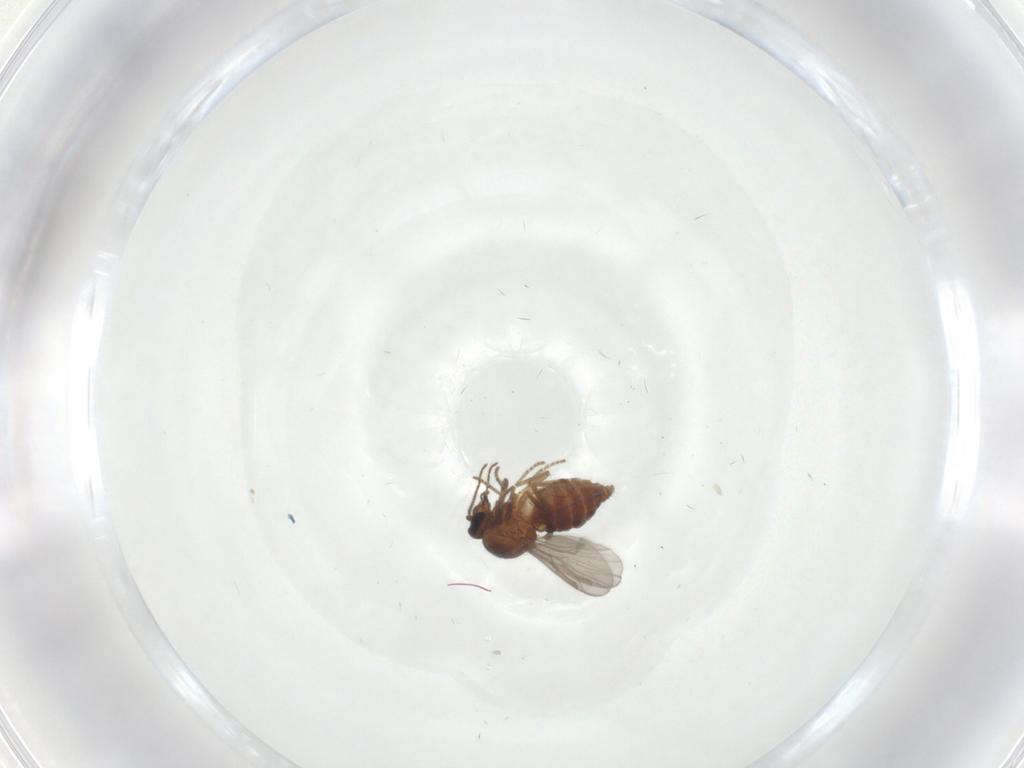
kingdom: Animalia
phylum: Arthropoda
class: Insecta
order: Diptera
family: Ceratopogonidae
